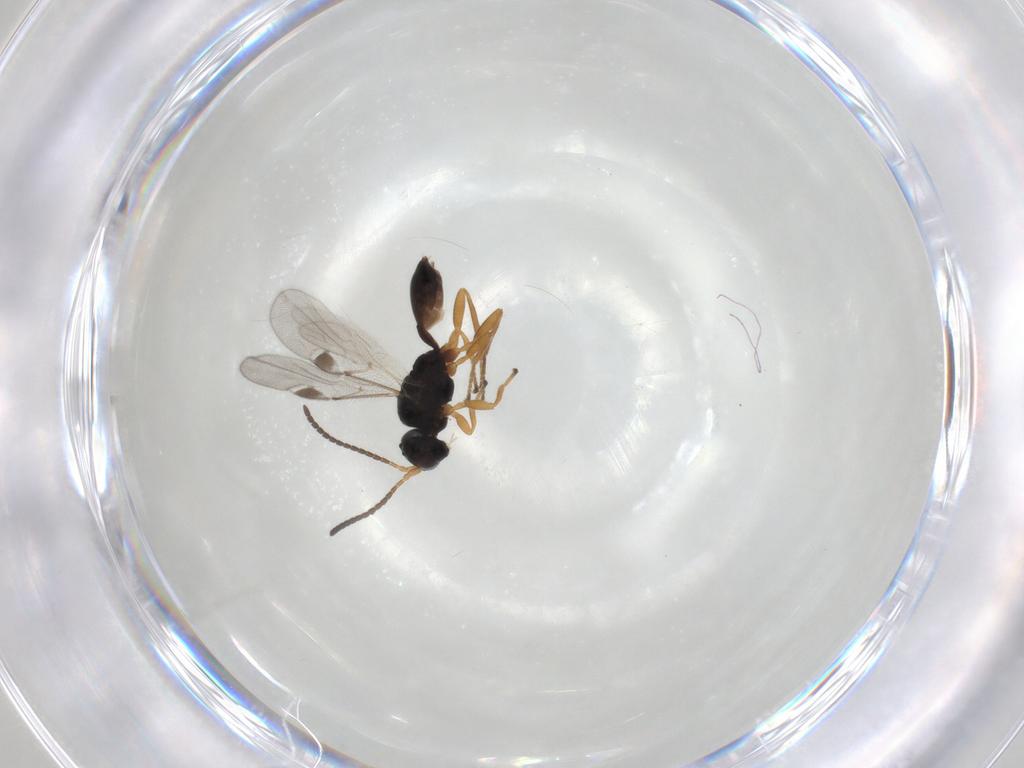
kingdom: Animalia
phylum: Arthropoda
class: Insecta
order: Hymenoptera
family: Braconidae
